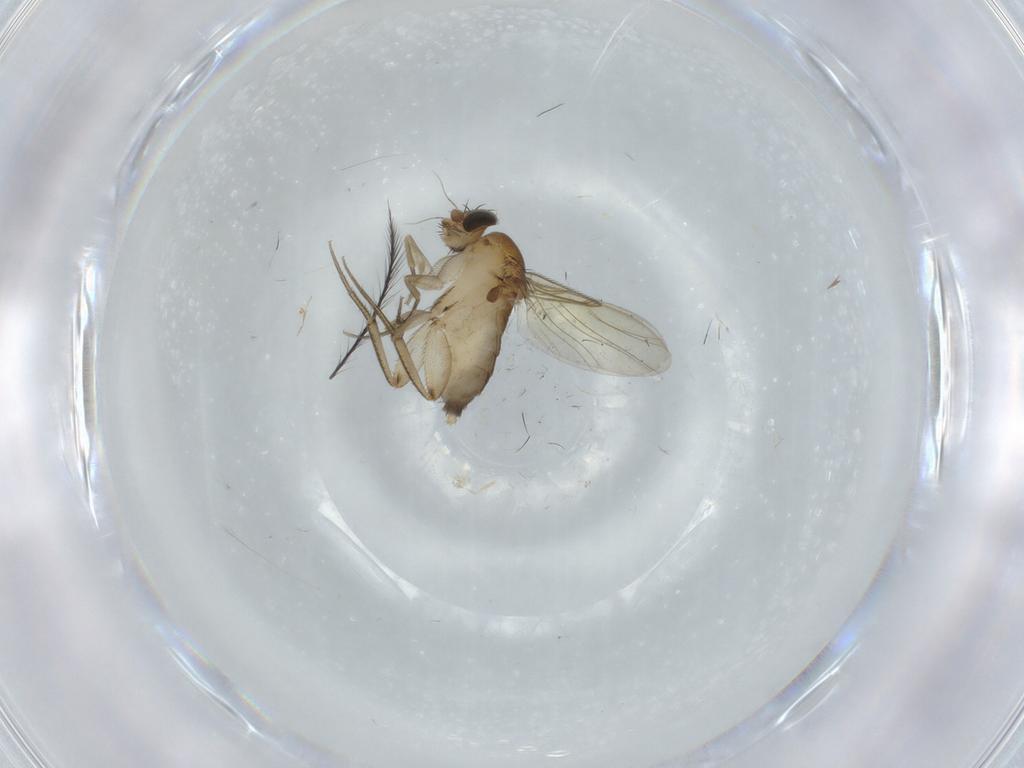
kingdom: Animalia
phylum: Arthropoda
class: Insecta
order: Diptera
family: Phoridae
